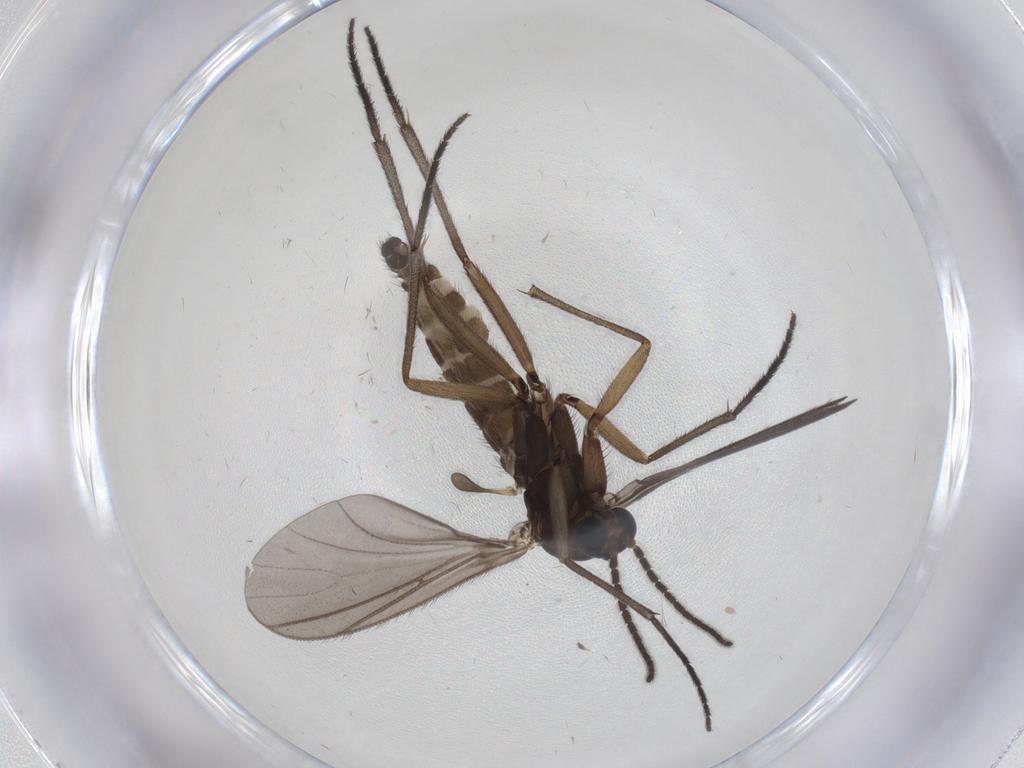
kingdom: Animalia
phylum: Arthropoda
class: Insecta
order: Diptera
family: Sciaridae
